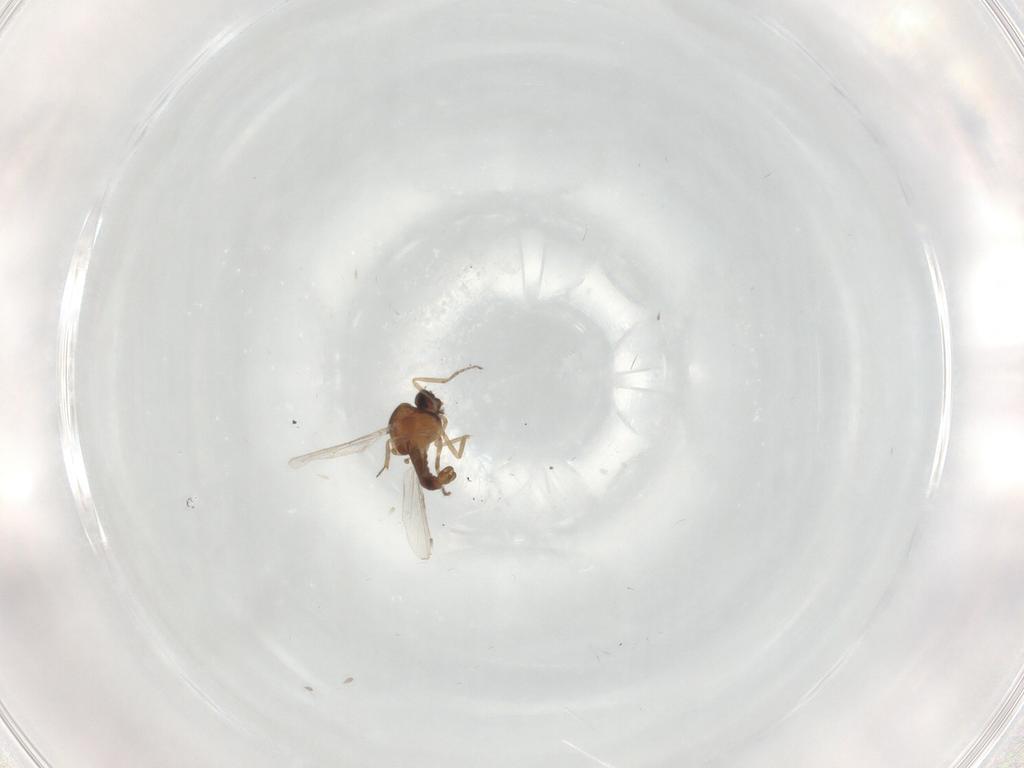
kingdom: Animalia
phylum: Arthropoda
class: Insecta
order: Diptera
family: Ceratopogonidae
